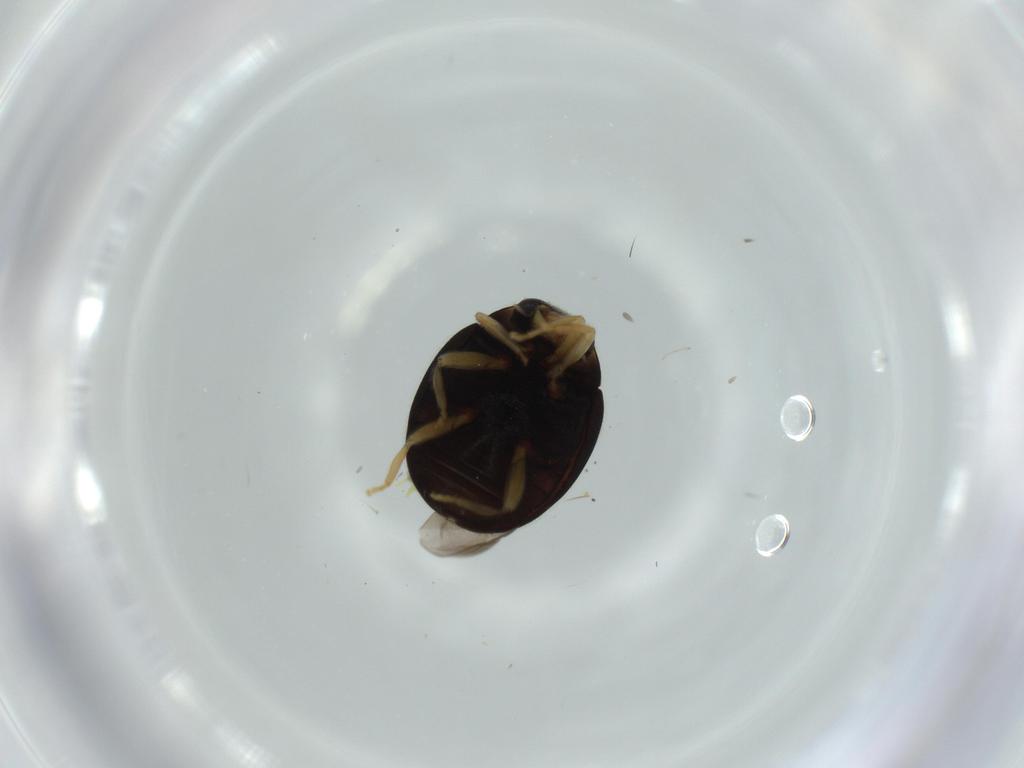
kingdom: Animalia
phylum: Arthropoda
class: Insecta
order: Coleoptera
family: Coccinellidae
